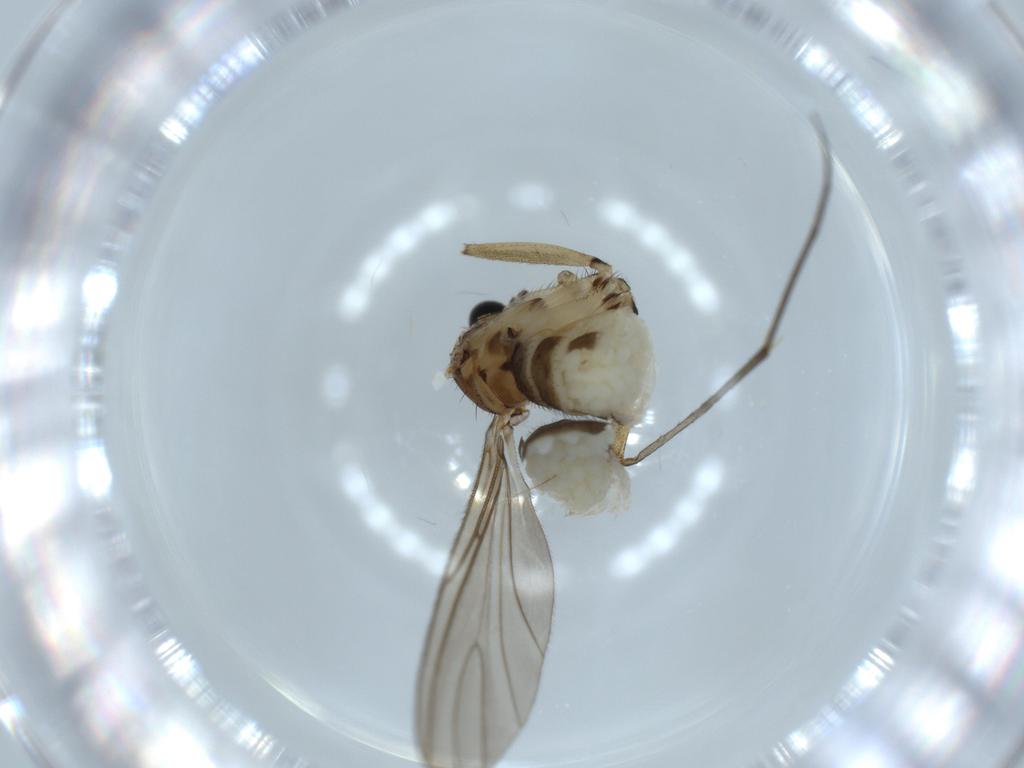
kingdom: Animalia
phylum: Arthropoda
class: Insecta
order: Diptera
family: Sciaridae
